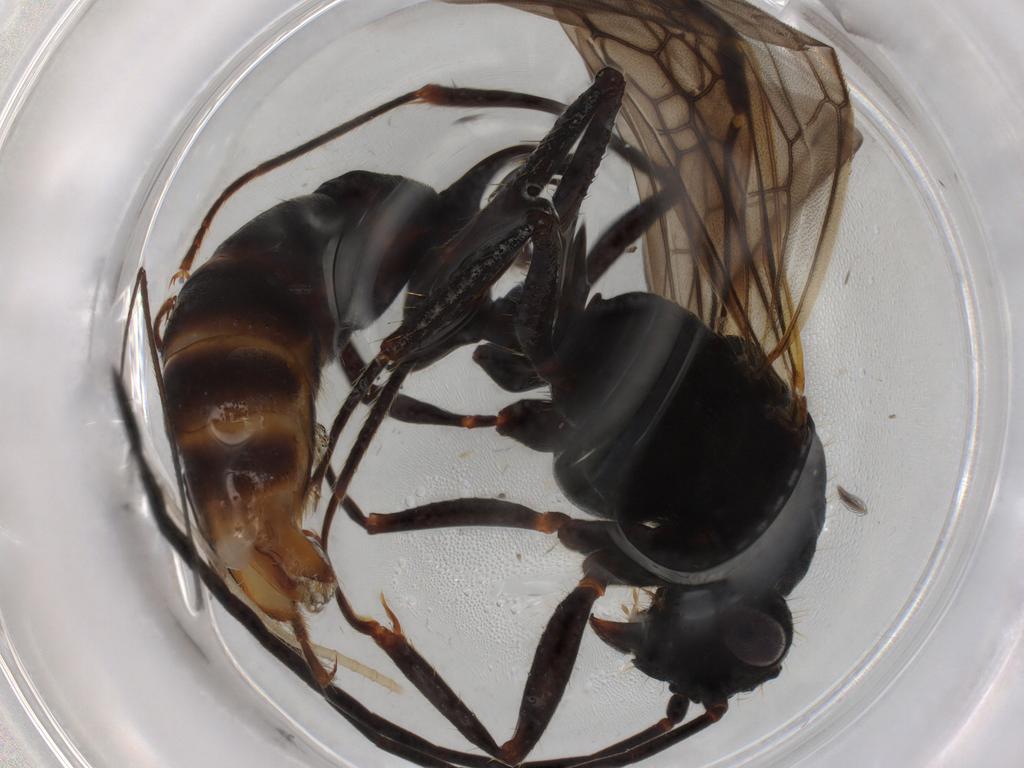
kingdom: Animalia
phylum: Arthropoda
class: Insecta
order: Hymenoptera
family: Formicidae
